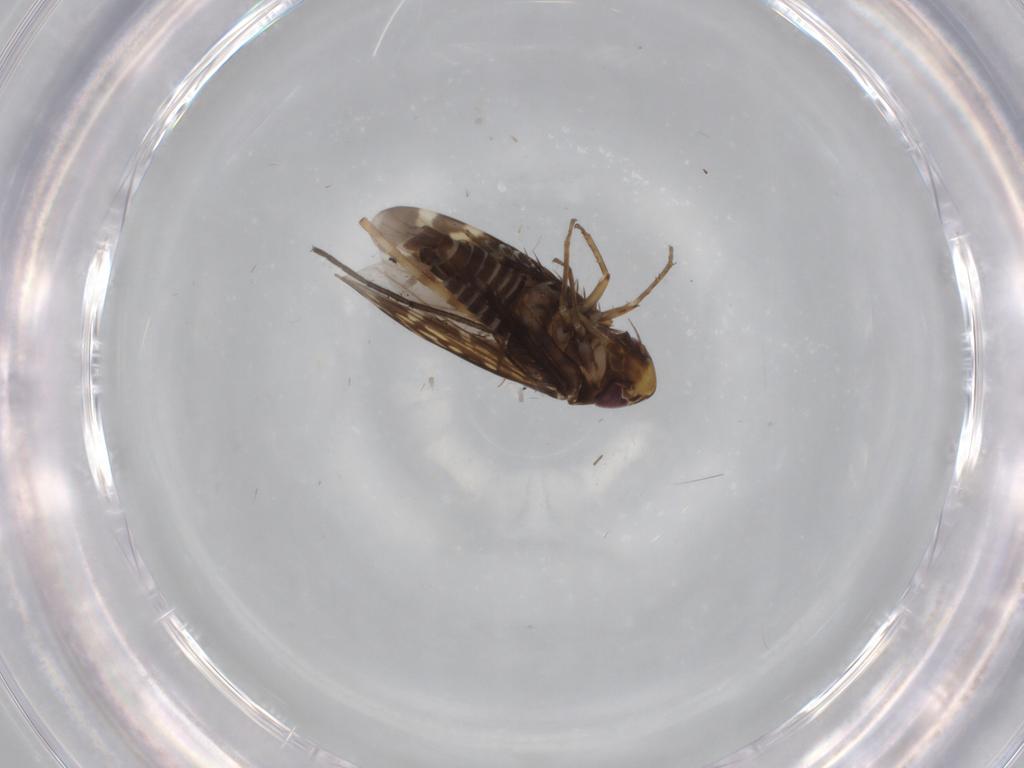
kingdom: Animalia
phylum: Arthropoda
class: Insecta
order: Hemiptera
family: Cicadellidae
